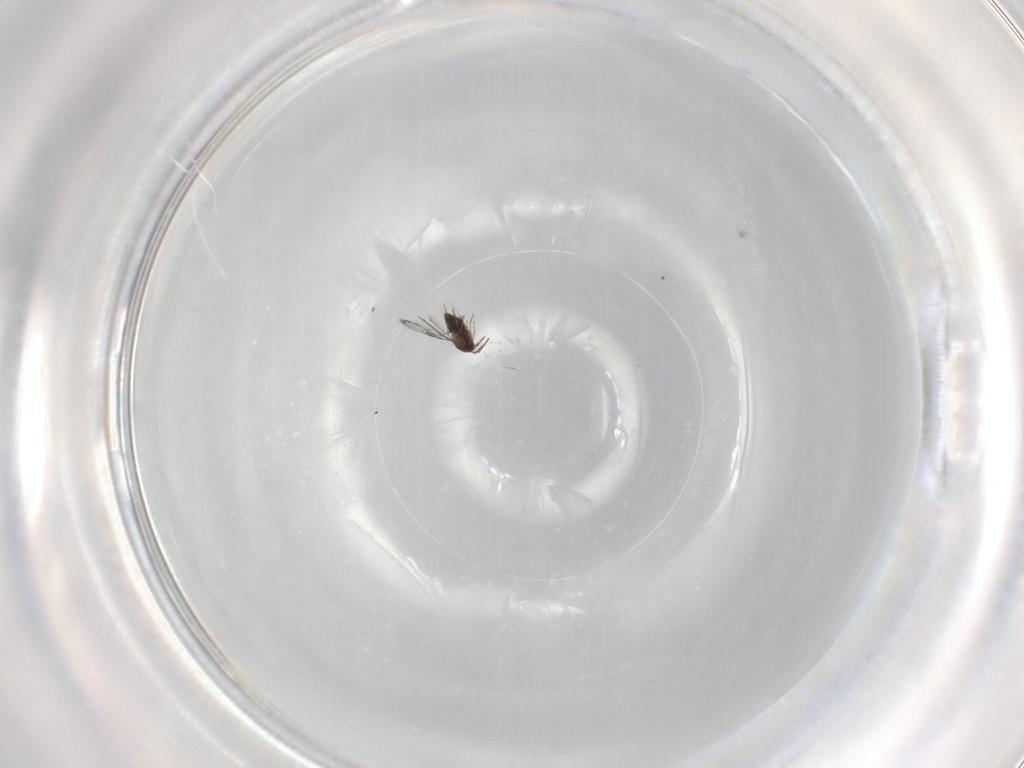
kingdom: Animalia
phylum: Arthropoda
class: Insecta
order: Hymenoptera
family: Trichogrammatidae
